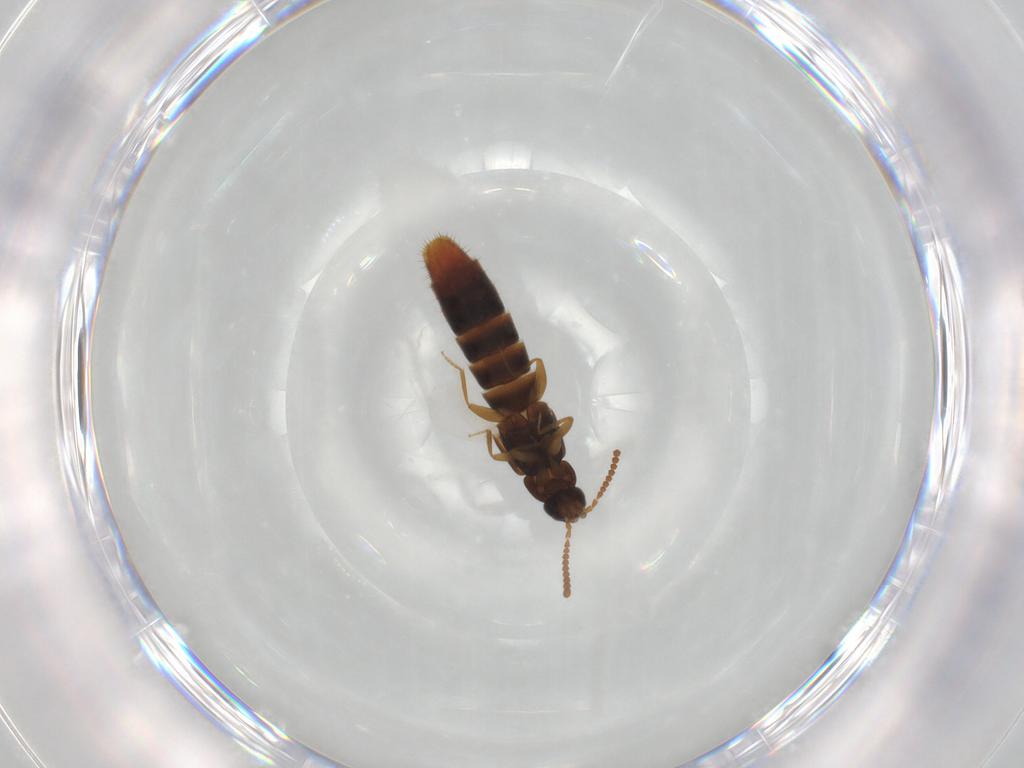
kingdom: Animalia
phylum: Arthropoda
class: Insecta
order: Coleoptera
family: Staphylinidae
